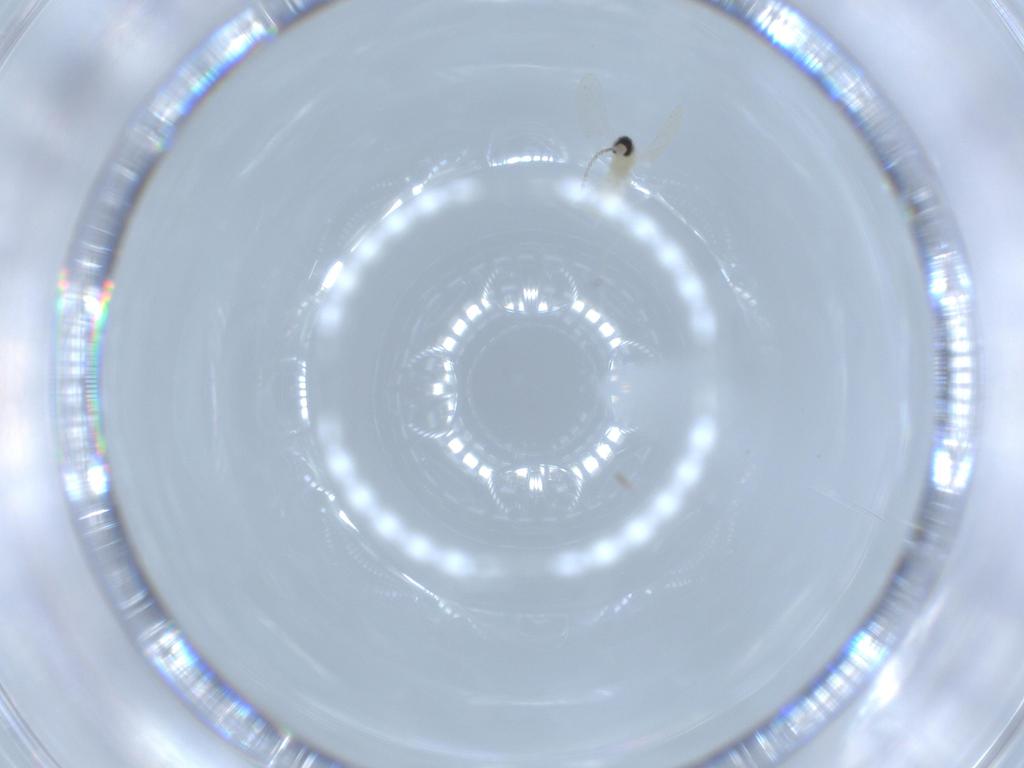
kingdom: Animalia
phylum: Arthropoda
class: Insecta
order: Diptera
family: Cecidomyiidae
